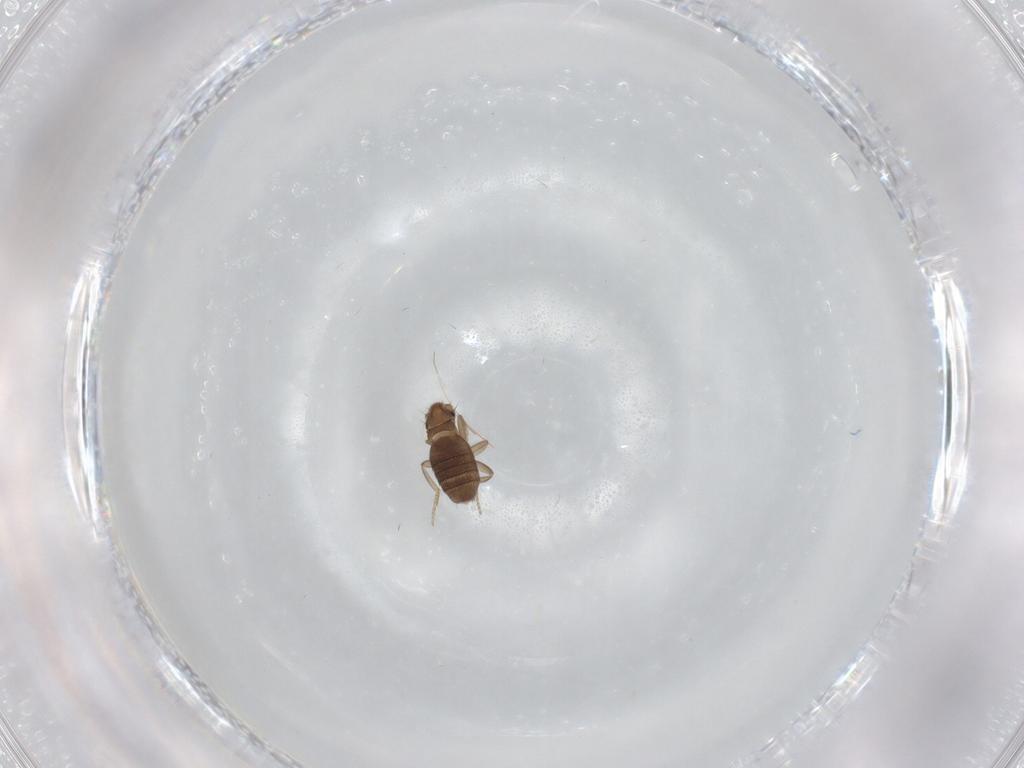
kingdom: Animalia
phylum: Arthropoda
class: Insecta
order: Diptera
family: Phoridae
